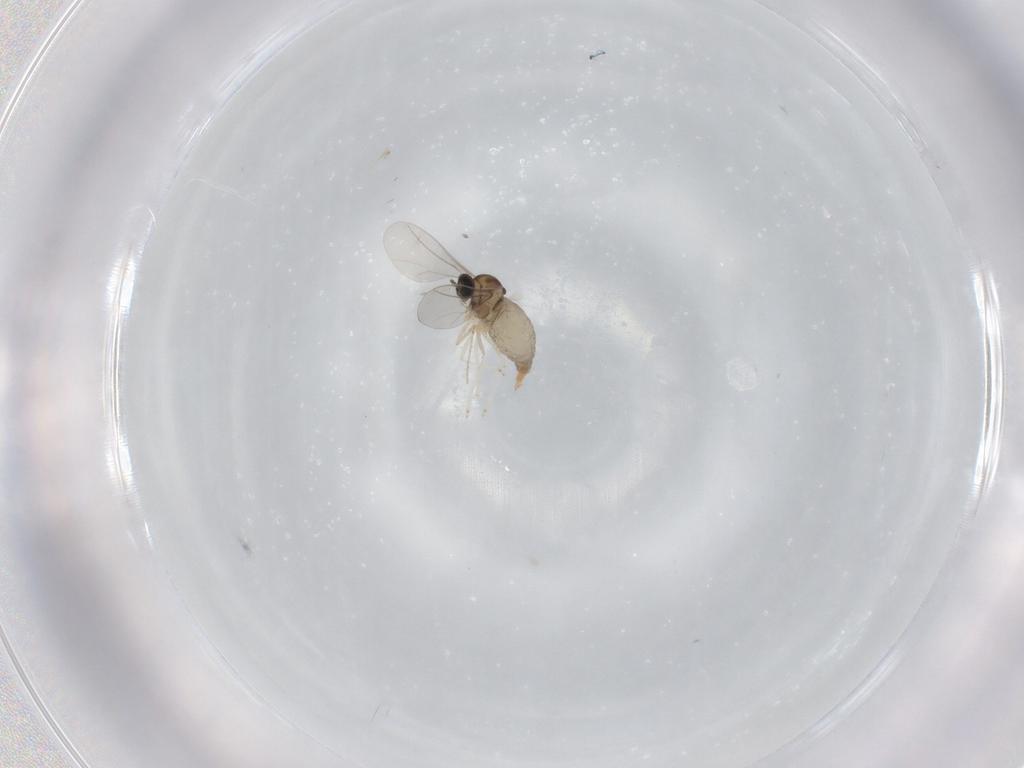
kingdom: Animalia
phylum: Arthropoda
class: Insecta
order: Diptera
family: Cecidomyiidae
